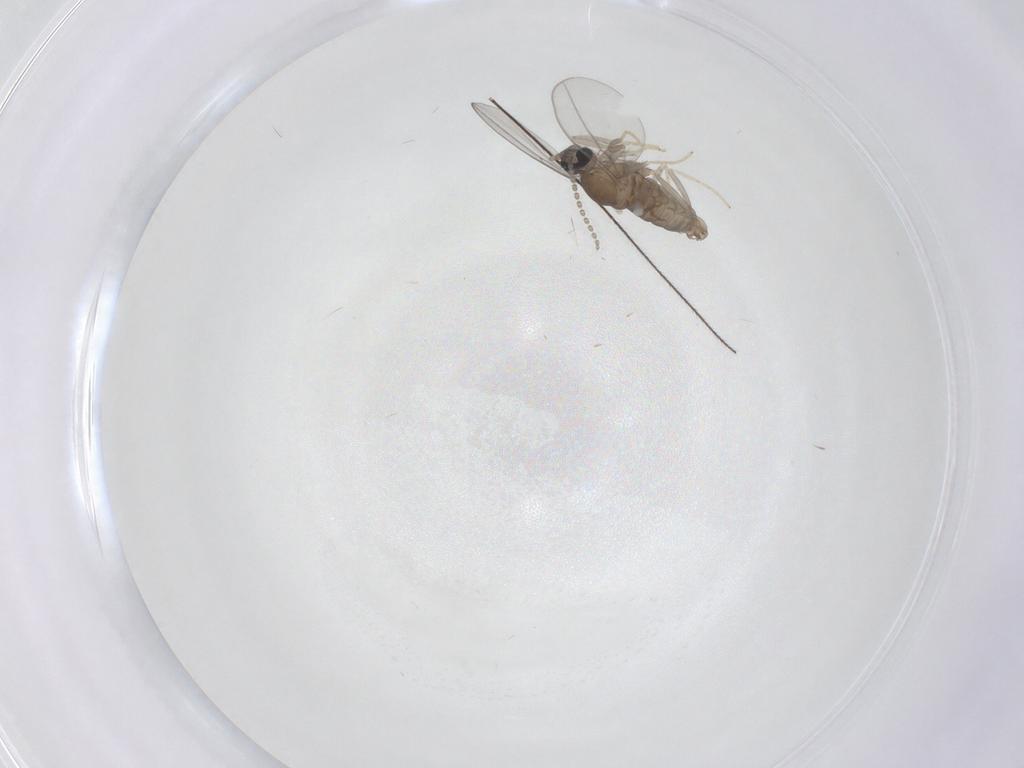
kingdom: Animalia
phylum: Arthropoda
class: Insecta
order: Diptera
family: Cecidomyiidae
